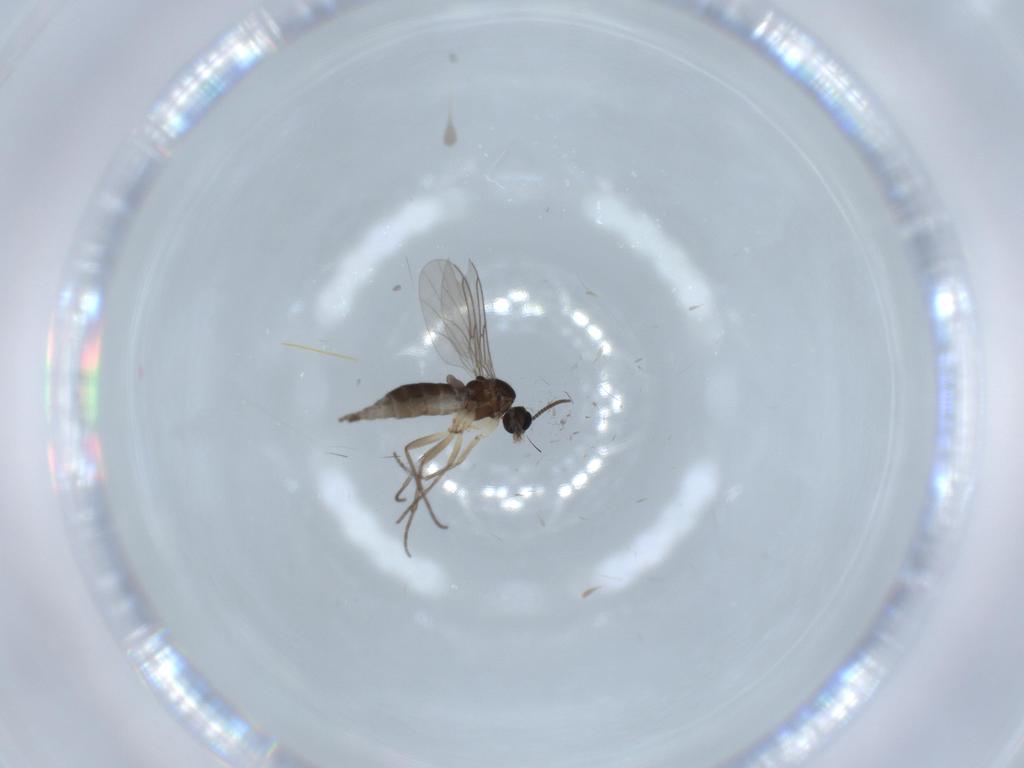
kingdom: Animalia
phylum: Arthropoda
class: Insecta
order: Diptera
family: Sciaridae
